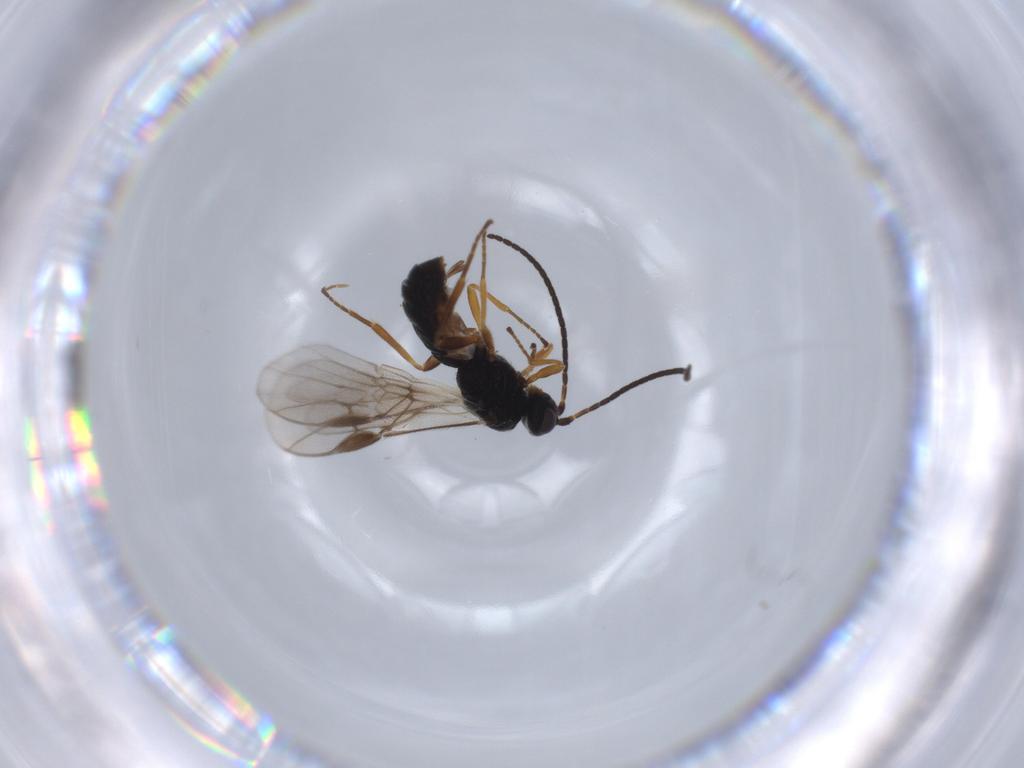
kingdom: Animalia
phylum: Arthropoda
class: Insecta
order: Hymenoptera
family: Braconidae
